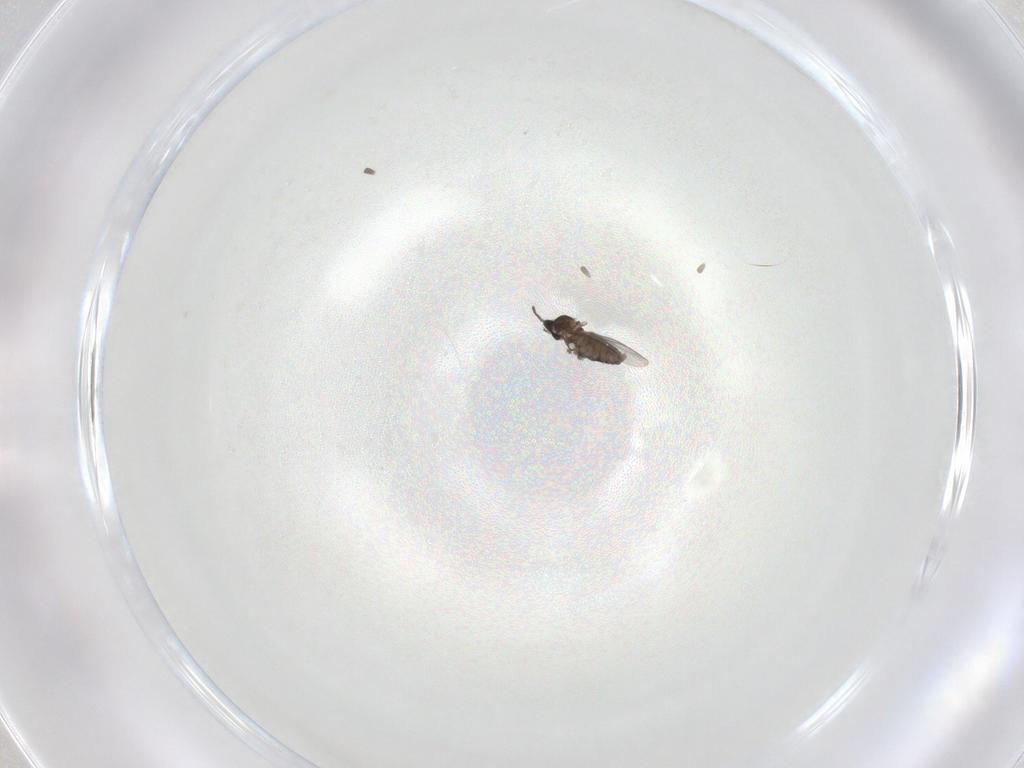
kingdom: Animalia
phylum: Arthropoda
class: Insecta
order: Diptera
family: Cecidomyiidae
